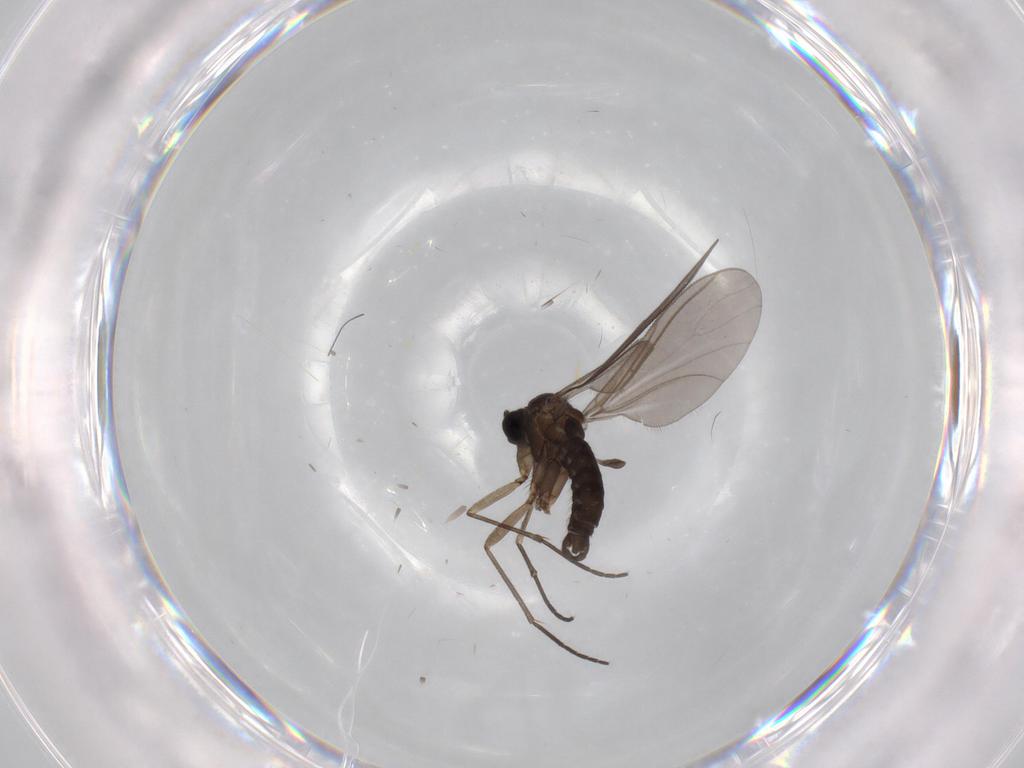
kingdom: Animalia
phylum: Arthropoda
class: Insecta
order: Diptera
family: Sciaridae
